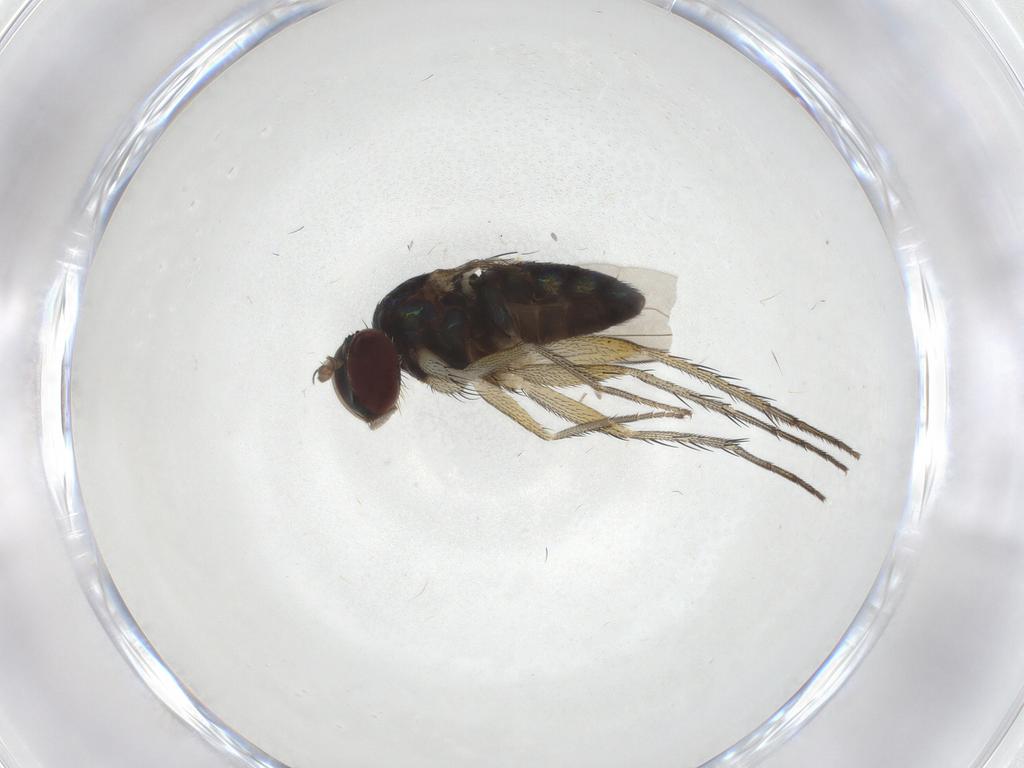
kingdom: Animalia
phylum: Arthropoda
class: Insecta
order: Diptera
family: Dolichopodidae
